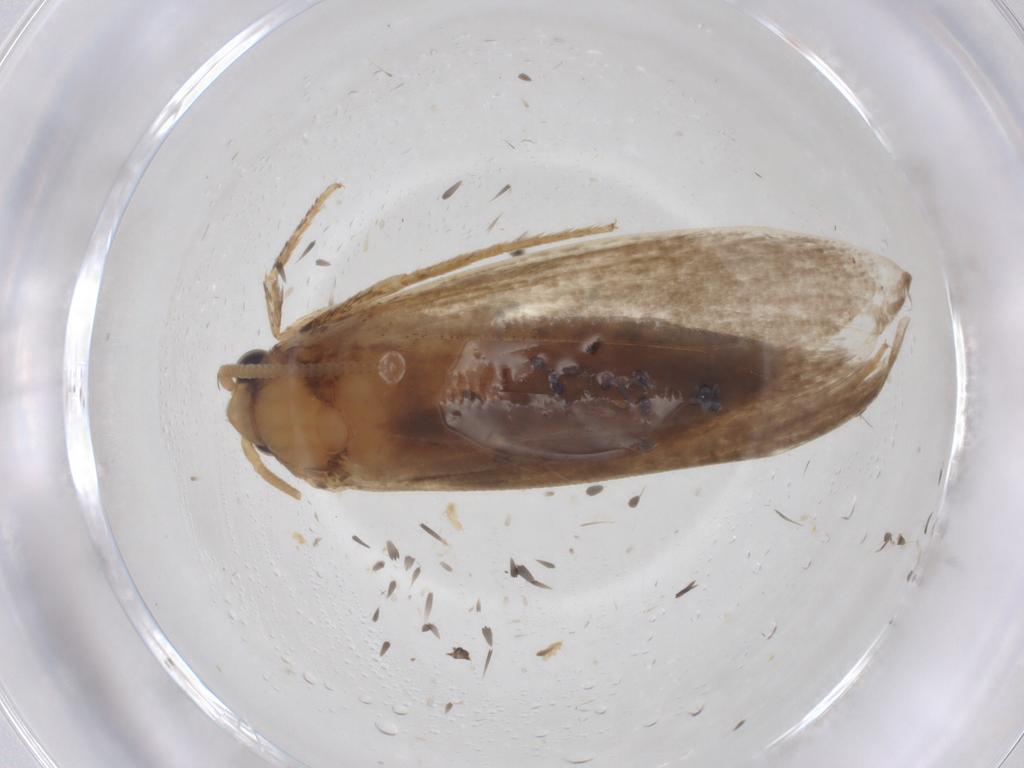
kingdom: Animalia
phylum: Arthropoda
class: Insecta
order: Lepidoptera
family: Tineidae
